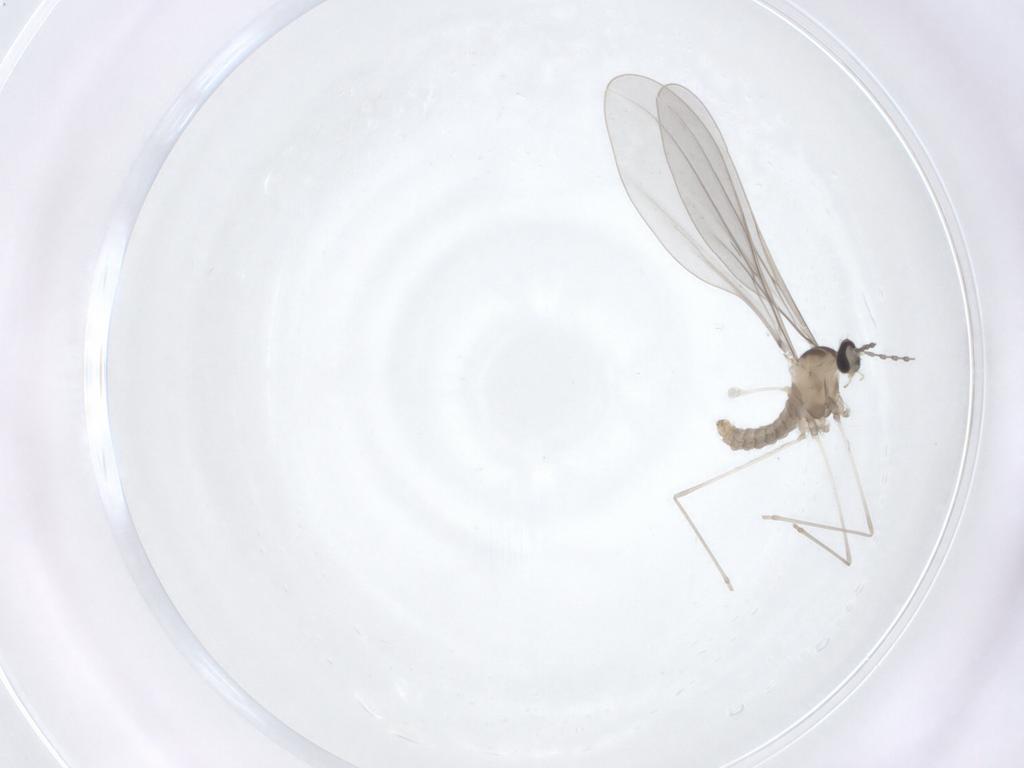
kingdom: Animalia
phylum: Arthropoda
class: Insecta
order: Diptera
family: Cecidomyiidae
